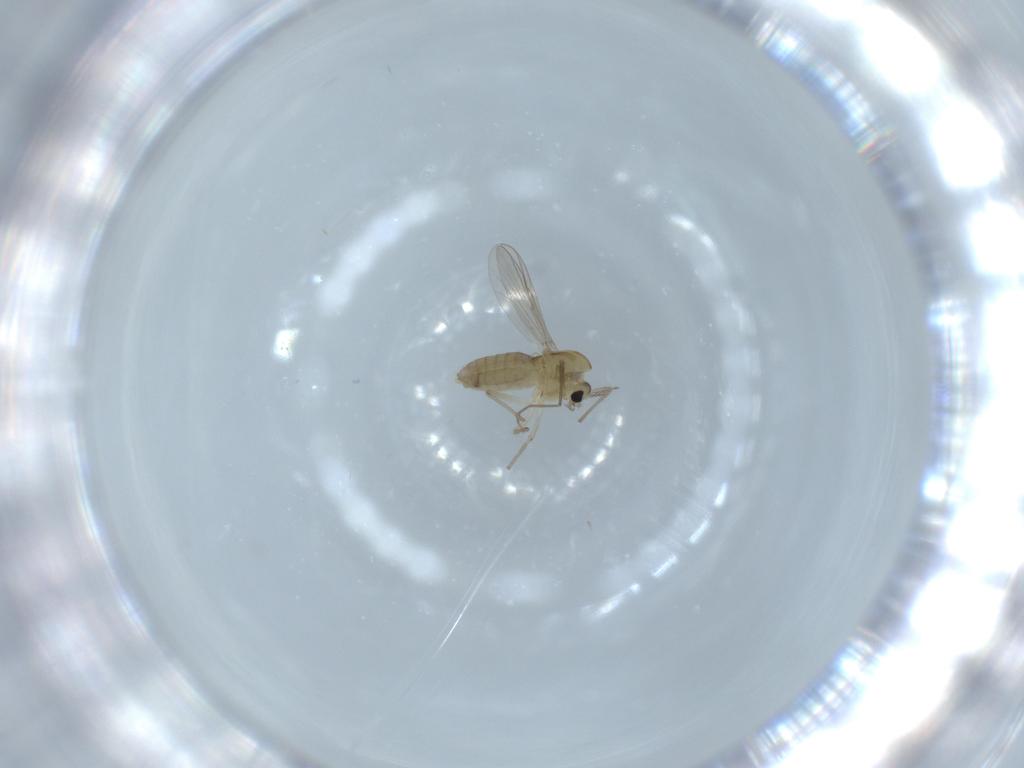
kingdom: Animalia
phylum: Arthropoda
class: Insecta
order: Diptera
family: Chironomidae
